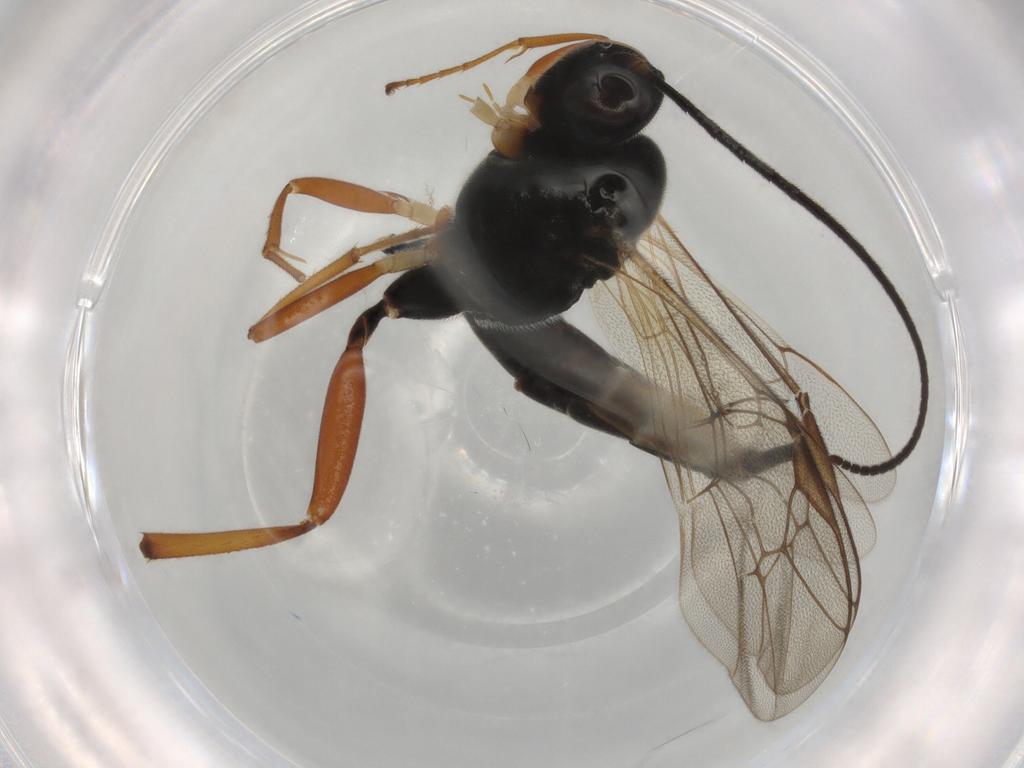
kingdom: Animalia
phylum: Arthropoda
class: Insecta
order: Hymenoptera
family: Ichneumonidae
